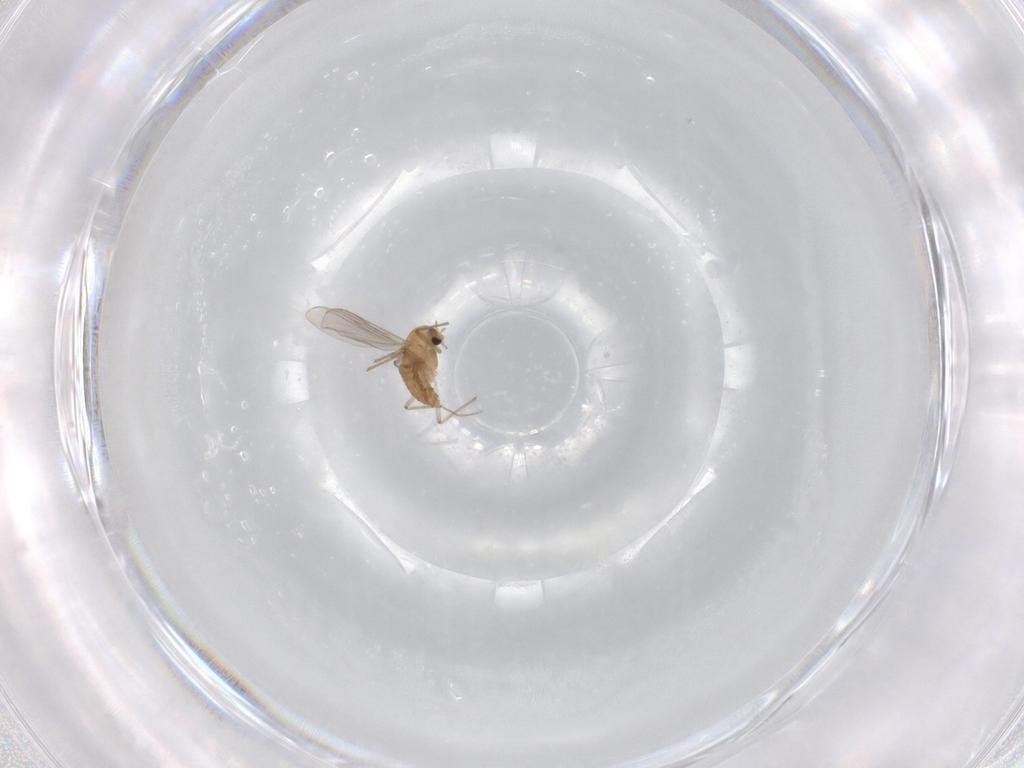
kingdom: Animalia
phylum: Arthropoda
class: Insecta
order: Diptera
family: Chironomidae
